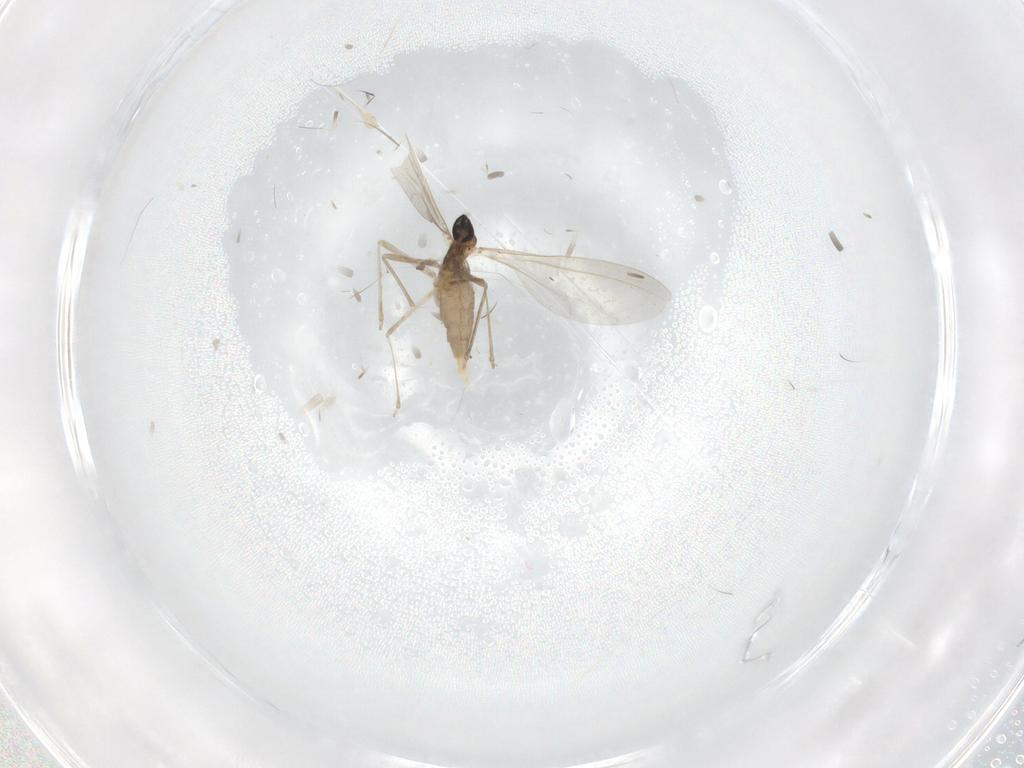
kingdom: Animalia
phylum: Arthropoda
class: Insecta
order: Diptera
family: Cecidomyiidae
